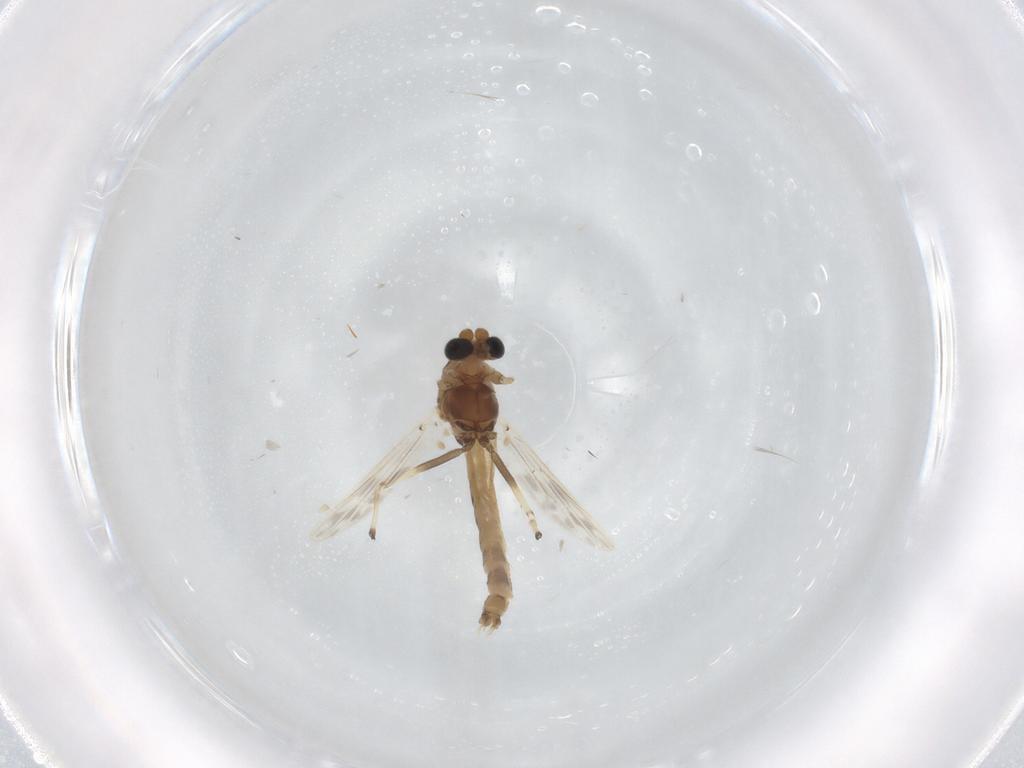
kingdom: Animalia
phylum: Arthropoda
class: Insecta
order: Diptera
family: Chironomidae
